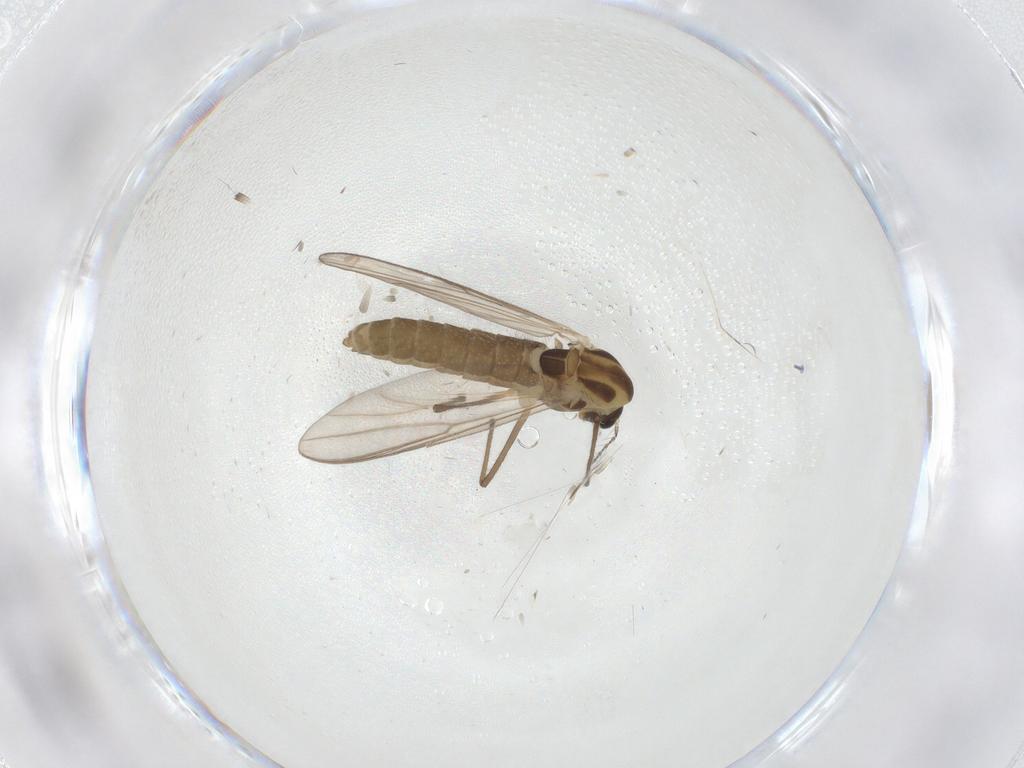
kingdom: Animalia
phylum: Arthropoda
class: Insecta
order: Diptera
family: Chironomidae
